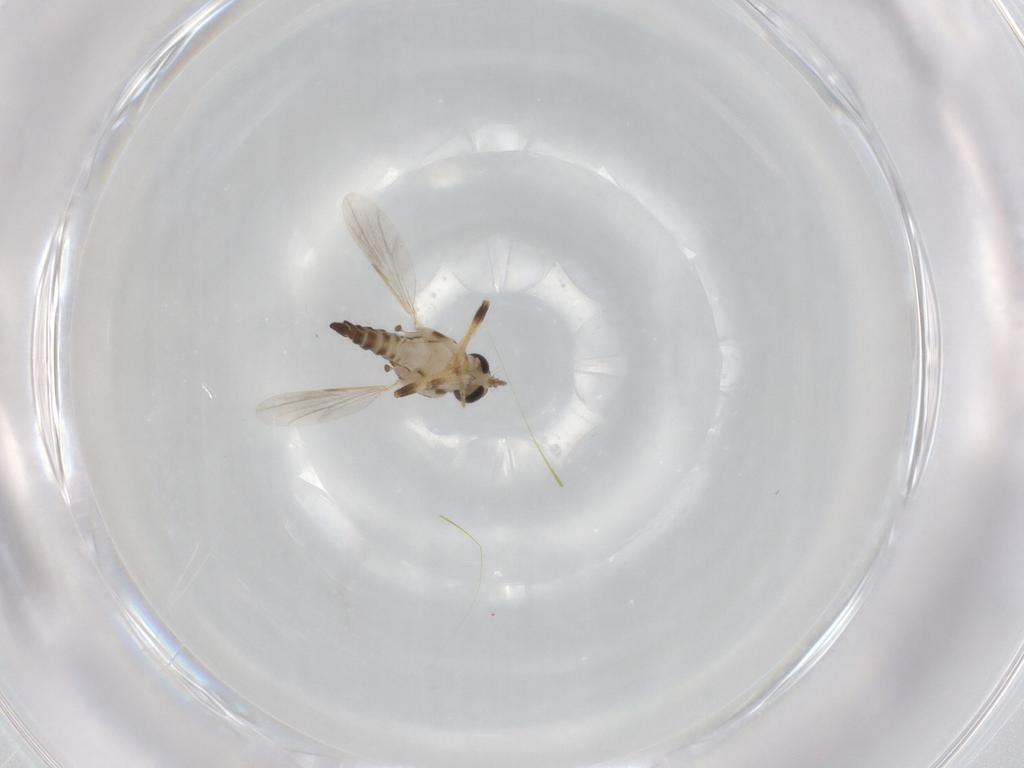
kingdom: Animalia
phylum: Arthropoda
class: Insecta
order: Diptera
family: Ceratopogonidae
